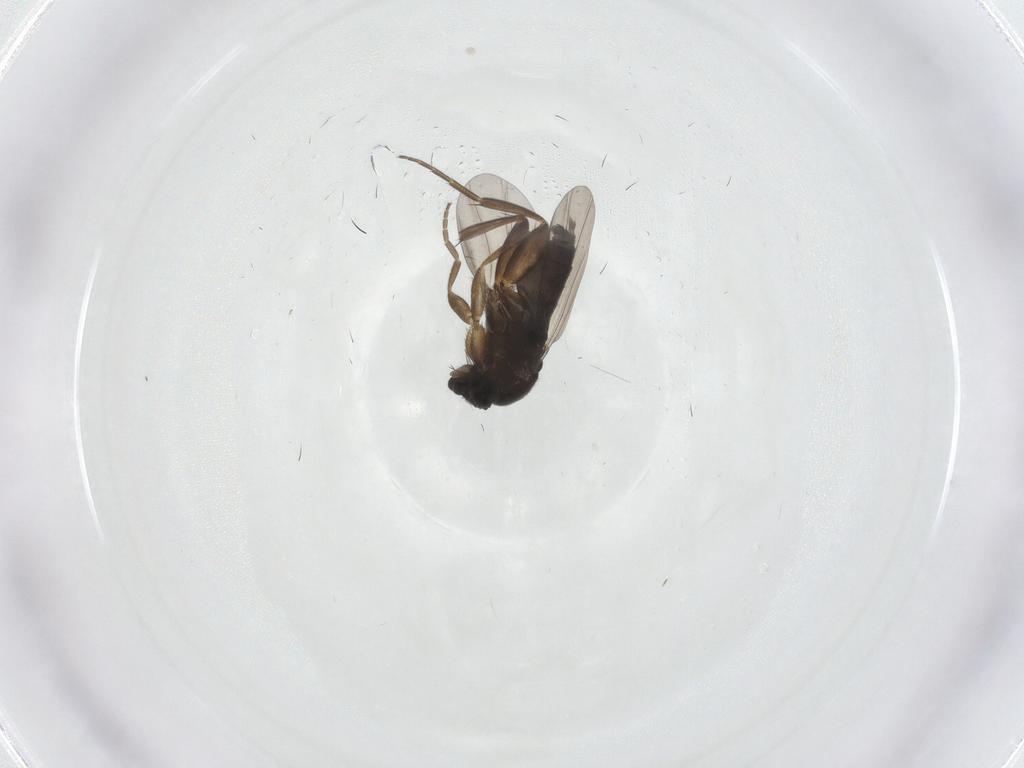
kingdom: Animalia
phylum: Arthropoda
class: Insecta
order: Diptera
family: Phoridae
